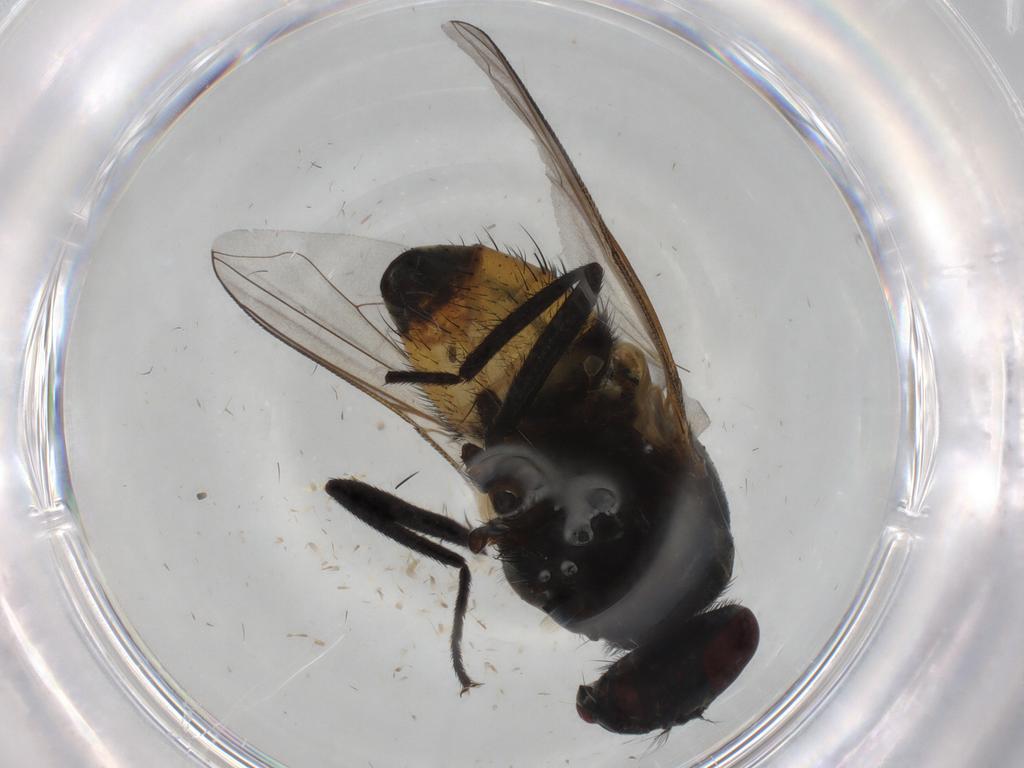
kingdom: Animalia
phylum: Arthropoda
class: Insecta
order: Diptera
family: Muscidae
